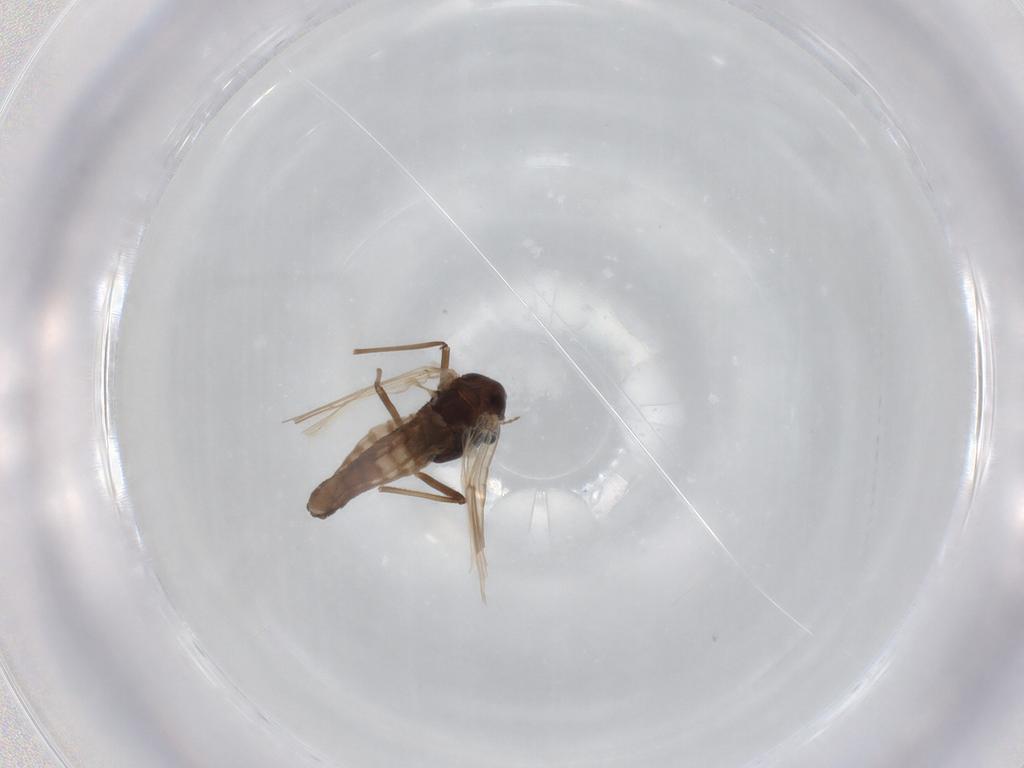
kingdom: Animalia
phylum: Arthropoda
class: Insecta
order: Diptera
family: Chironomidae
